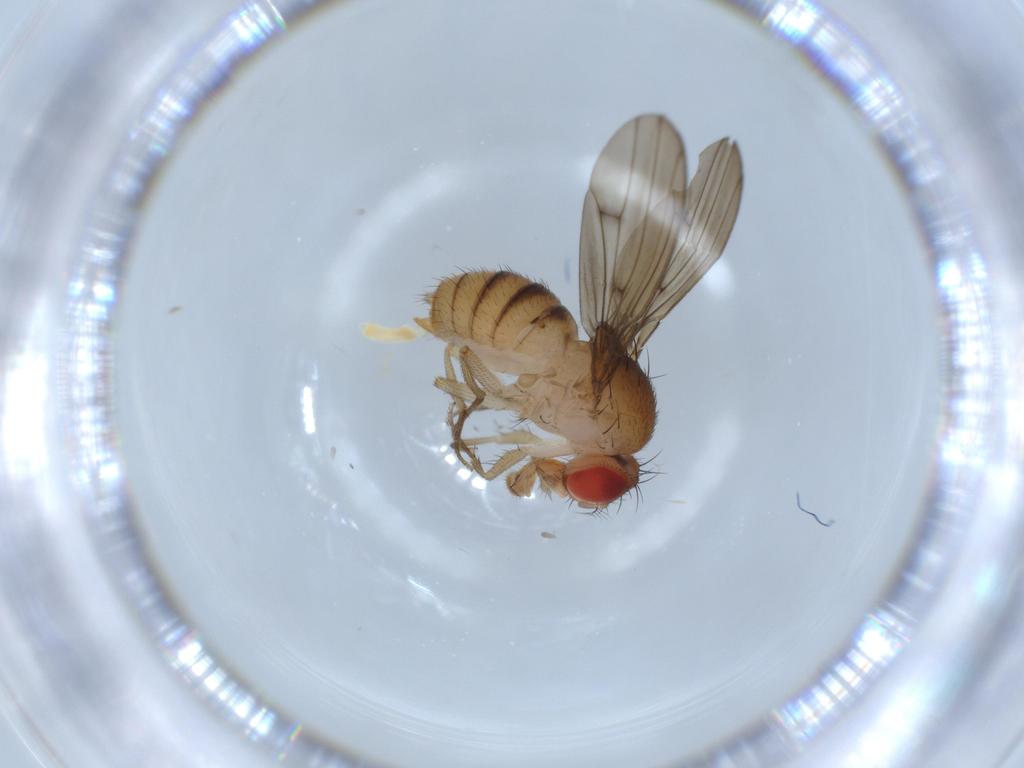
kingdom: Animalia
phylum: Arthropoda
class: Insecta
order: Diptera
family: Drosophilidae
